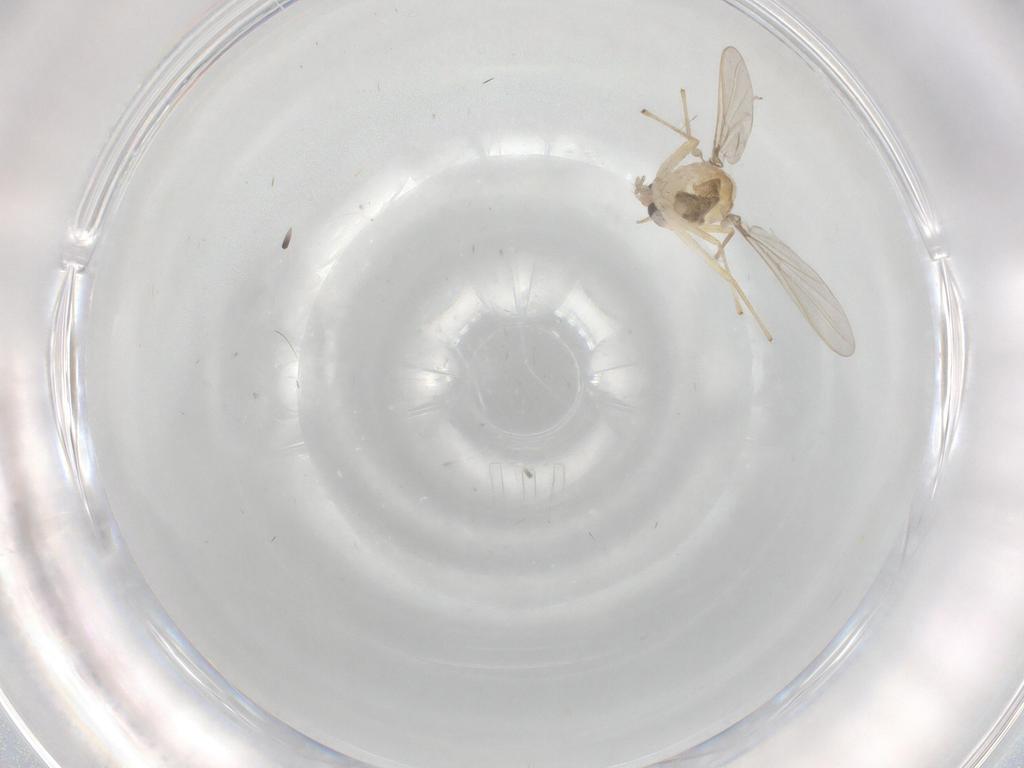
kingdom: Animalia
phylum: Arthropoda
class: Insecta
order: Diptera
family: Chironomidae
